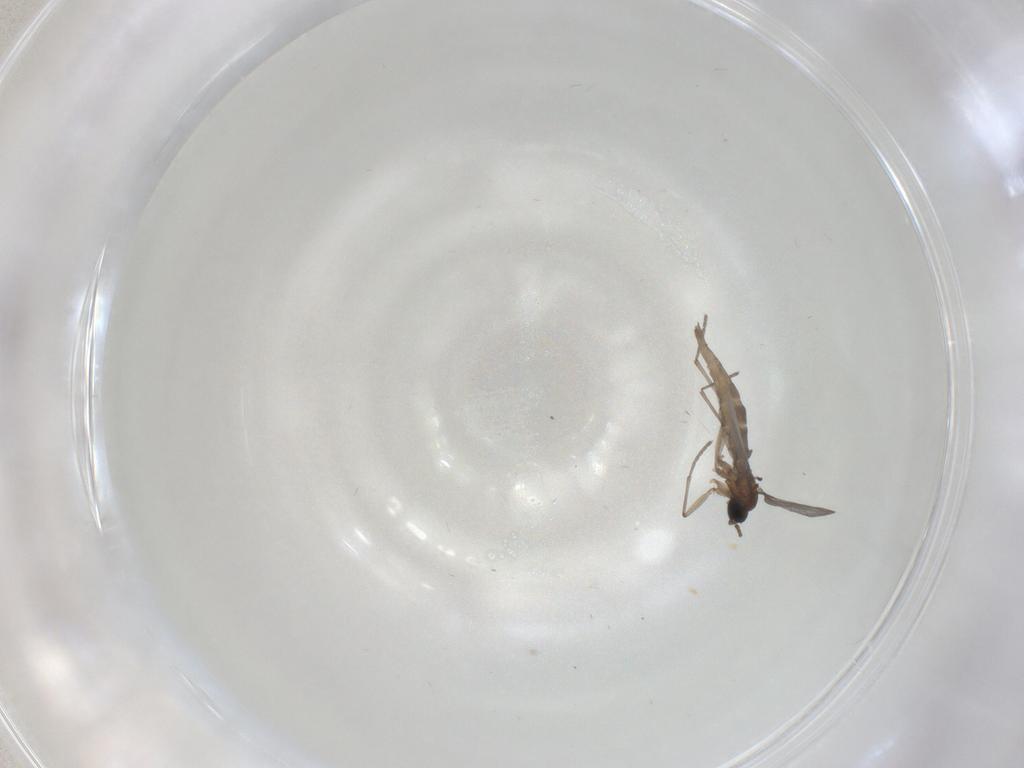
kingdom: Animalia
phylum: Arthropoda
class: Insecta
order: Diptera
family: Sciaridae
